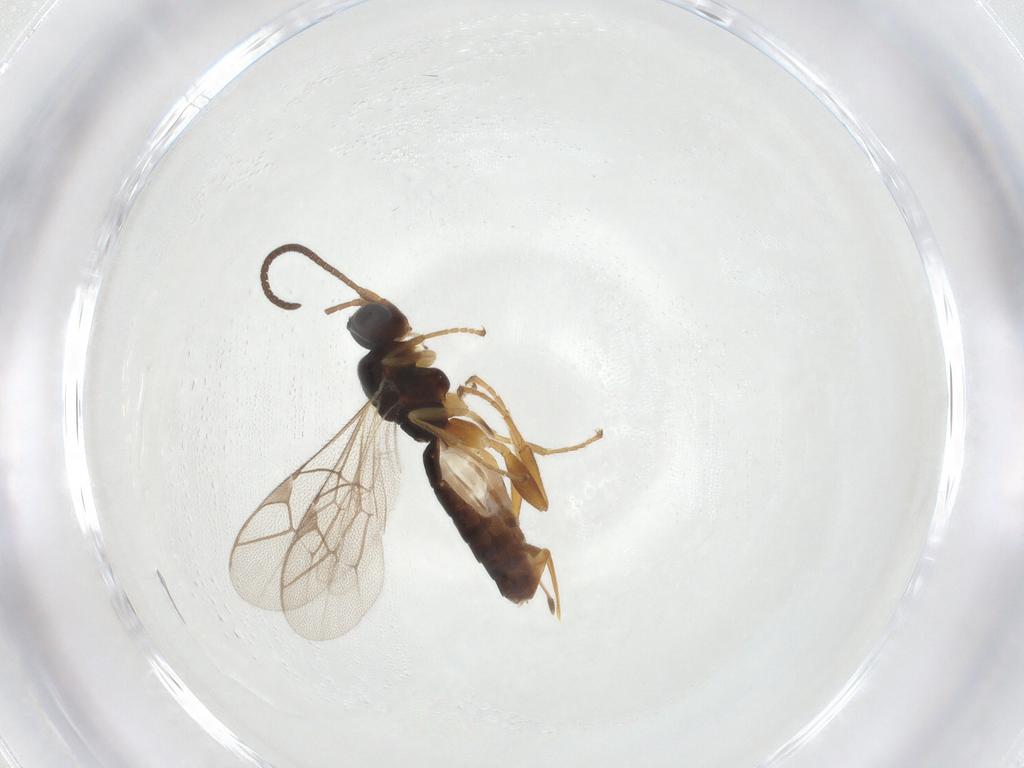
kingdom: Animalia
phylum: Arthropoda
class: Insecta
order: Hymenoptera
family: Ichneumonidae
